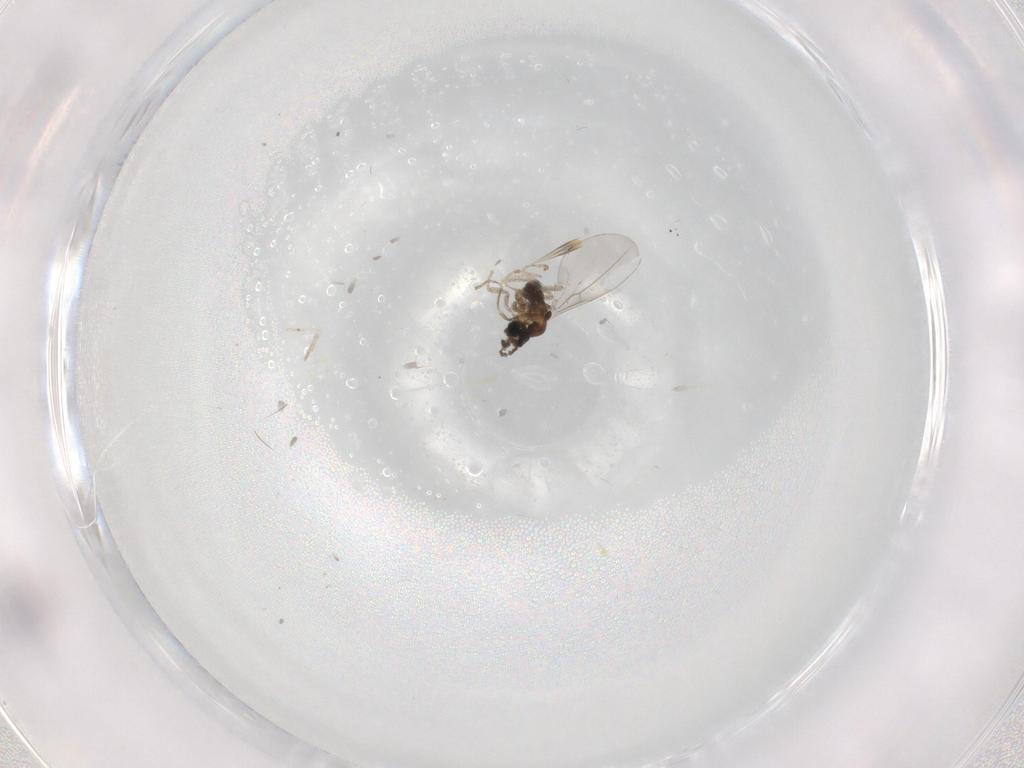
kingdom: Animalia
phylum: Arthropoda
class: Insecta
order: Diptera
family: Cecidomyiidae
